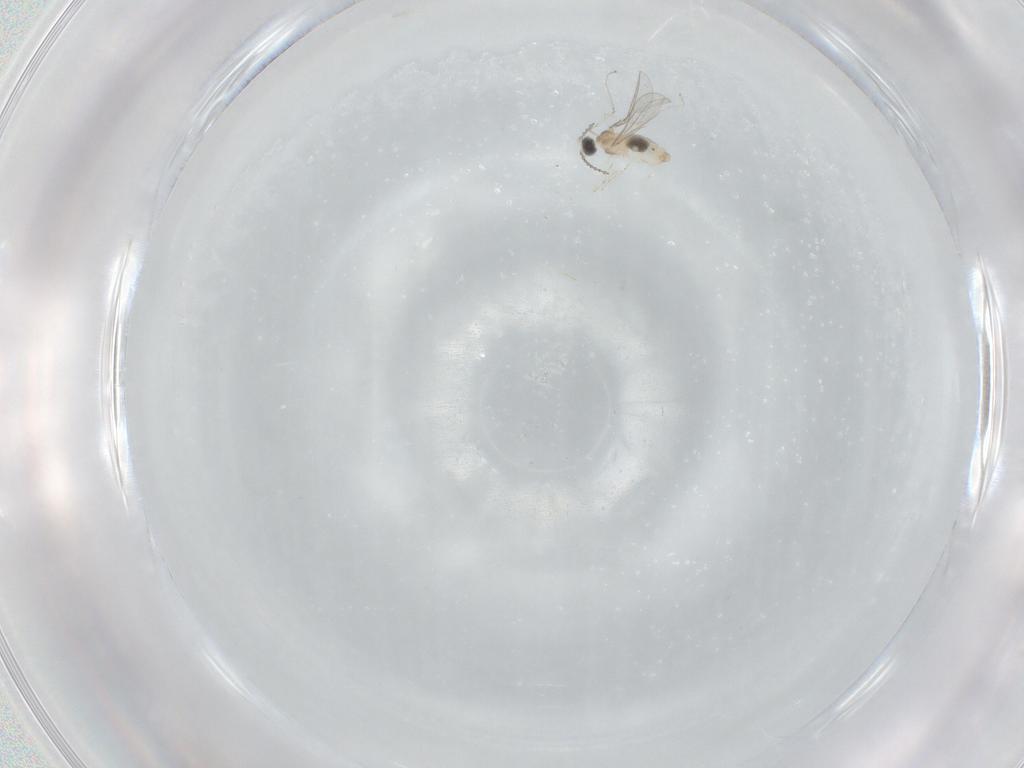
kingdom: Animalia
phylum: Arthropoda
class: Insecta
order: Diptera
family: Cecidomyiidae
